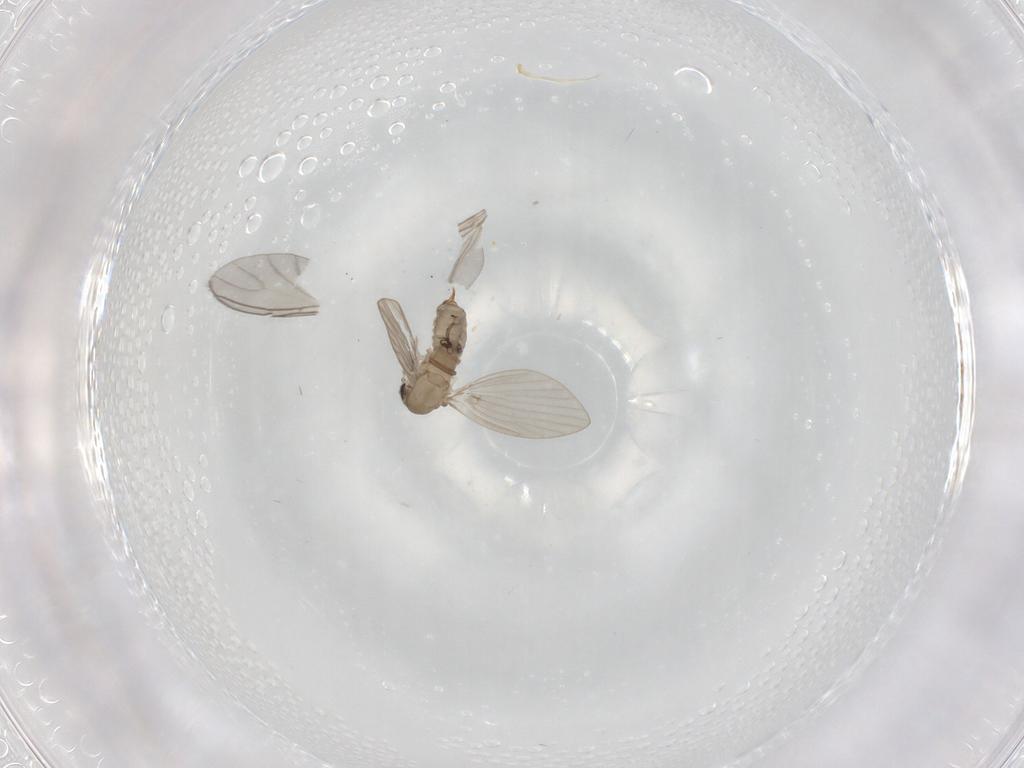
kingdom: Animalia
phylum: Arthropoda
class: Insecta
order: Diptera
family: Psychodidae
